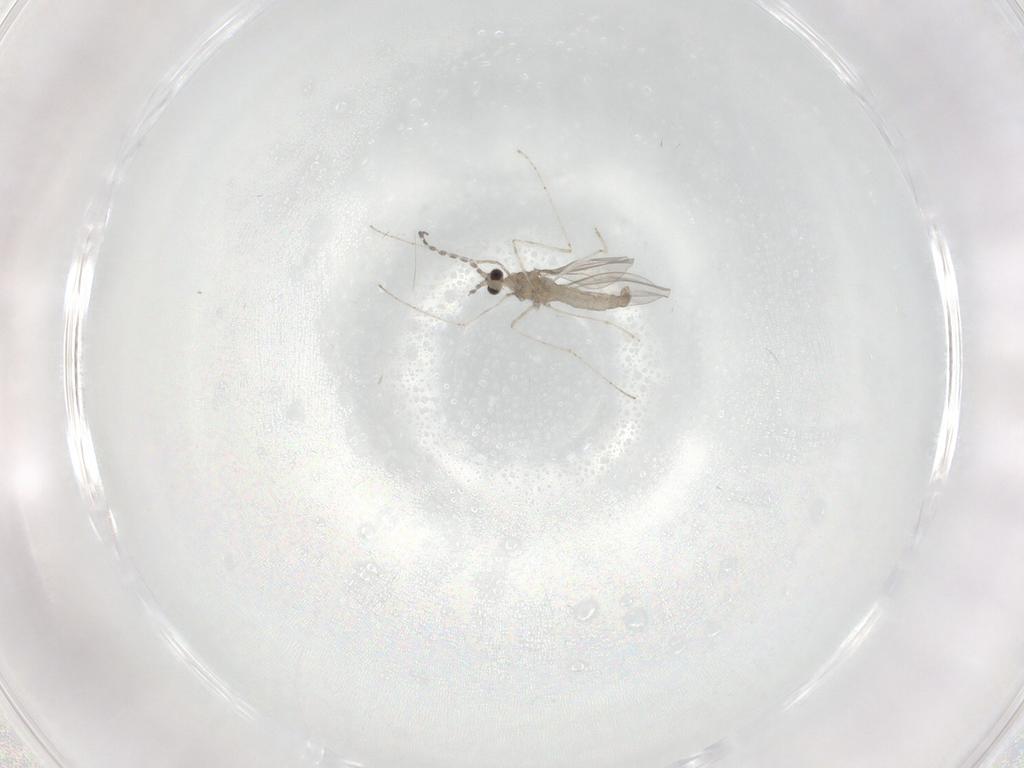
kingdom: Animalia
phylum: Arthropoda
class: Insecta
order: Diptera
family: Cecidomyiidae
